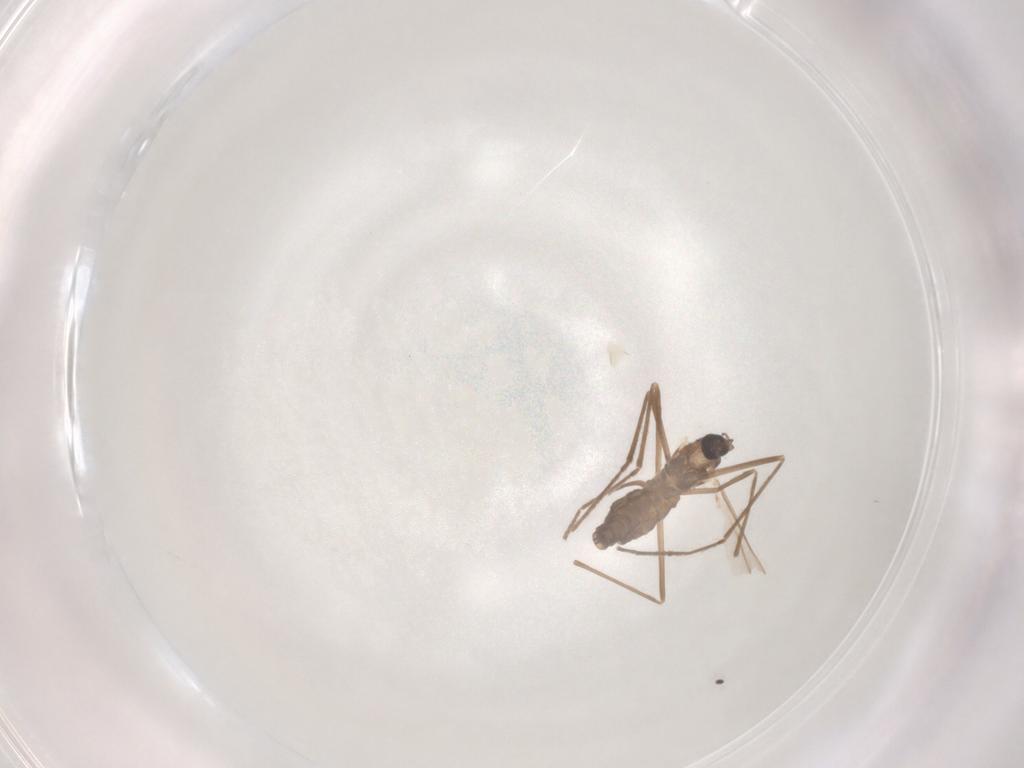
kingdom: Animalia
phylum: Arthropoda
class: Insecta
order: Diptera
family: Cecidomyiidae
